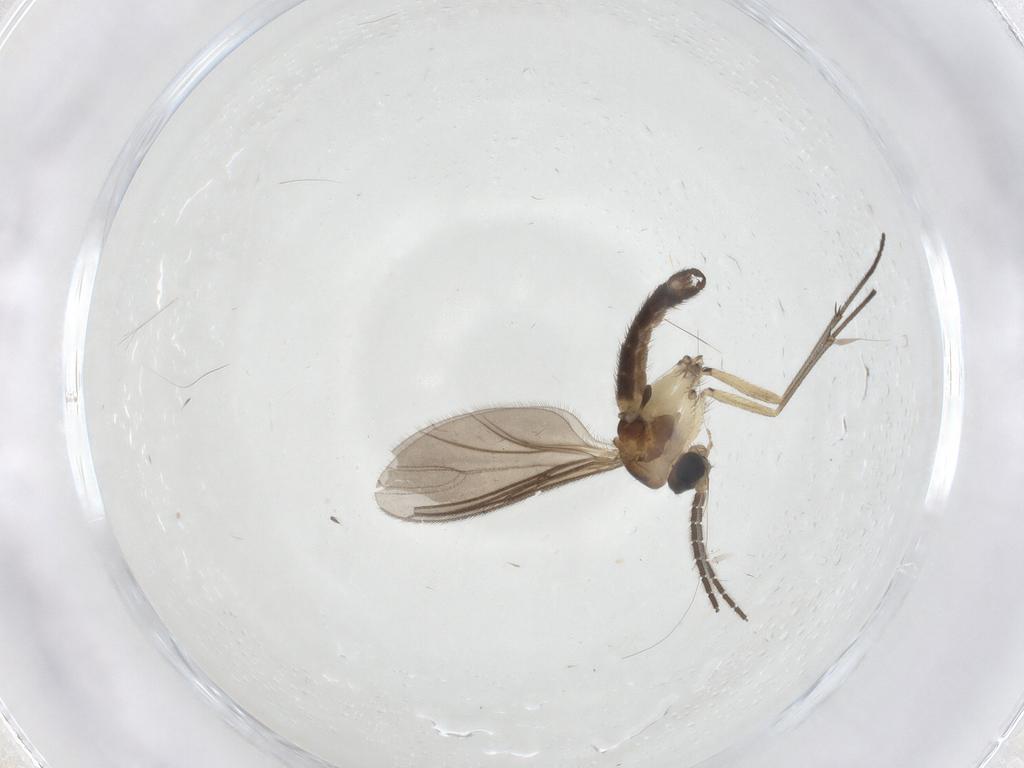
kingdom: Animalia
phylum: Arthropoda
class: Insecta
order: Diptera
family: Sciaridae
